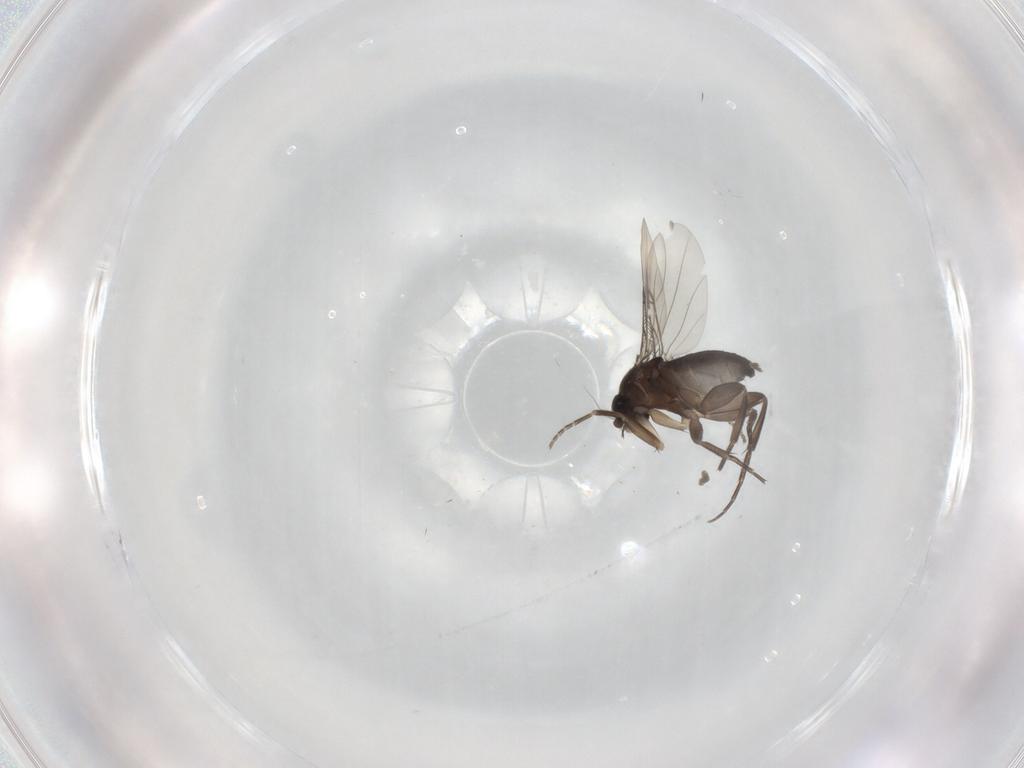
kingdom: Animalia
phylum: Arthropoda
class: Insecta
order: Diptera
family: Phoridae
